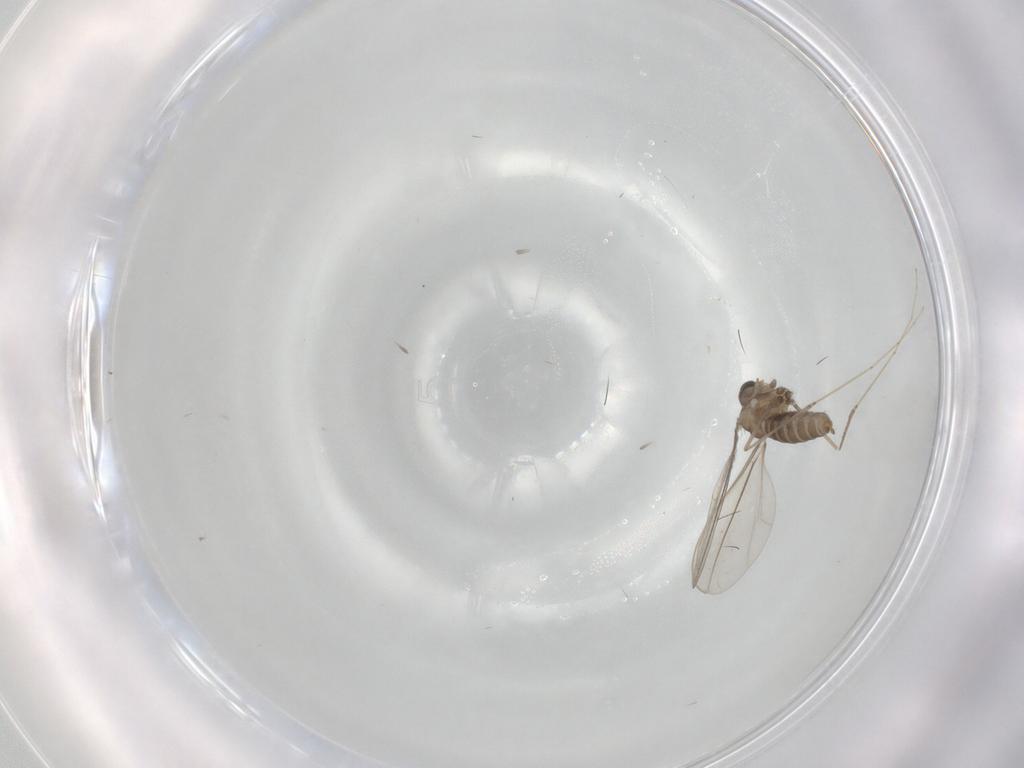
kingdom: Animalia
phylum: Arthropoda
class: Insecta
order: Diptera
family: Cecidomyiidae
